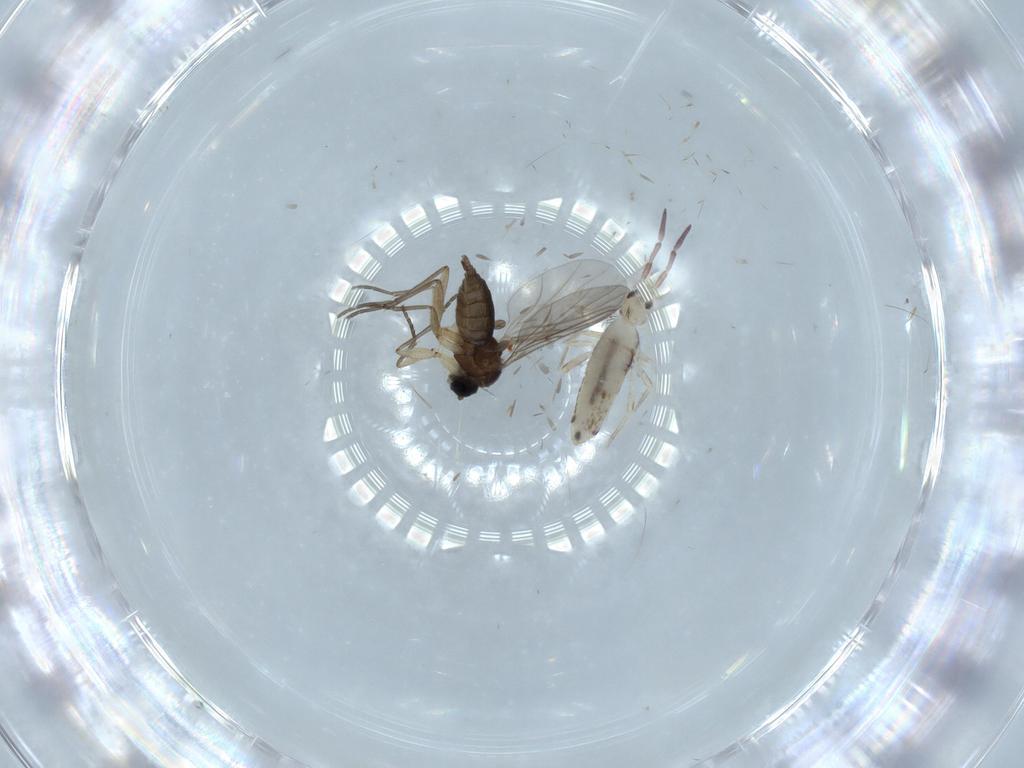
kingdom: Animalia
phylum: Arthropoda
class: Collembola
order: Entomobryomorpha
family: Entomobryidae
